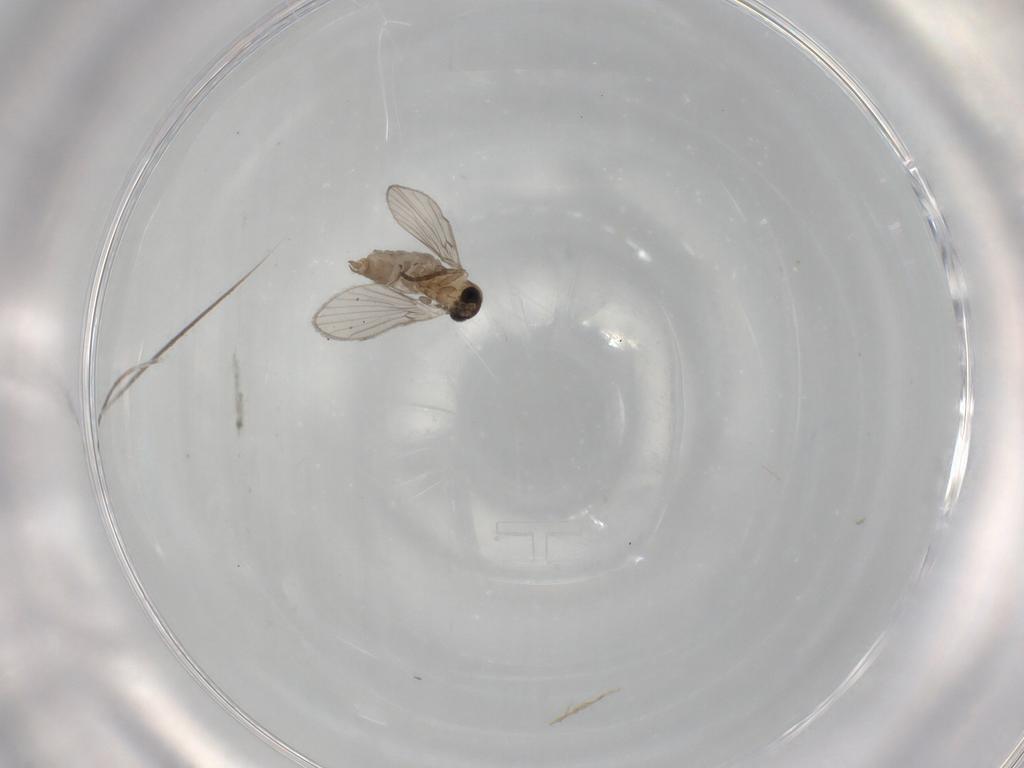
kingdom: Animalia
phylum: Arthropoda
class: Insecta
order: Diptera
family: Psychodidae
